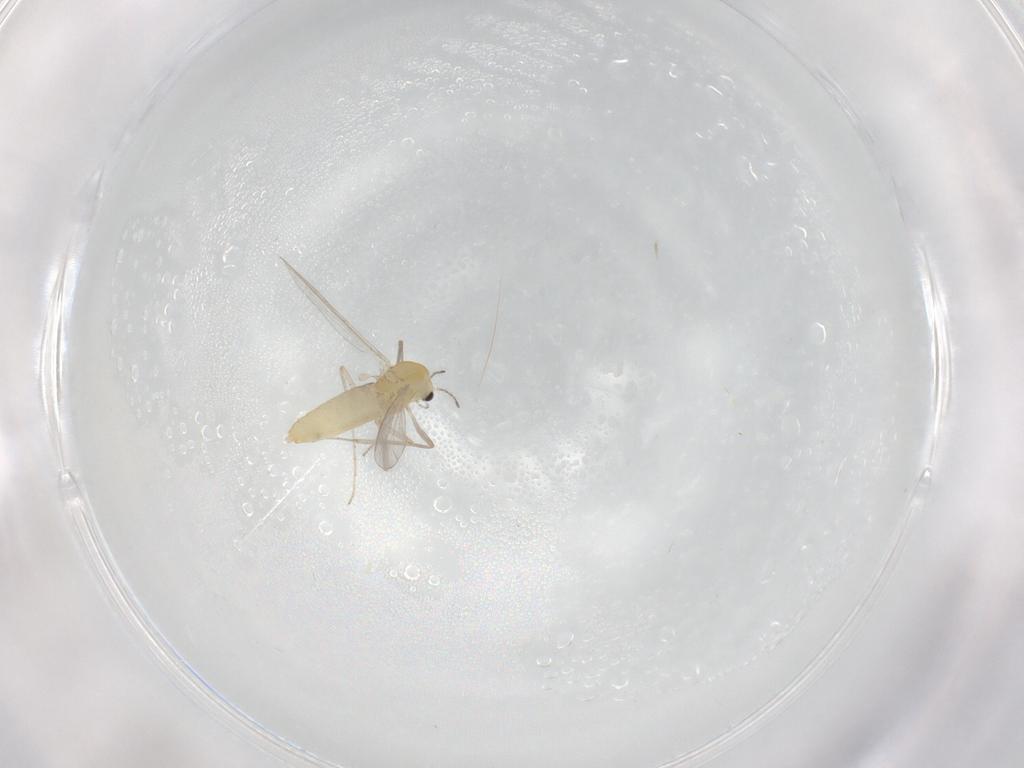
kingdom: Animalia
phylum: Arthropoda
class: Insecta
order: Diptera
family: Chironomidae
